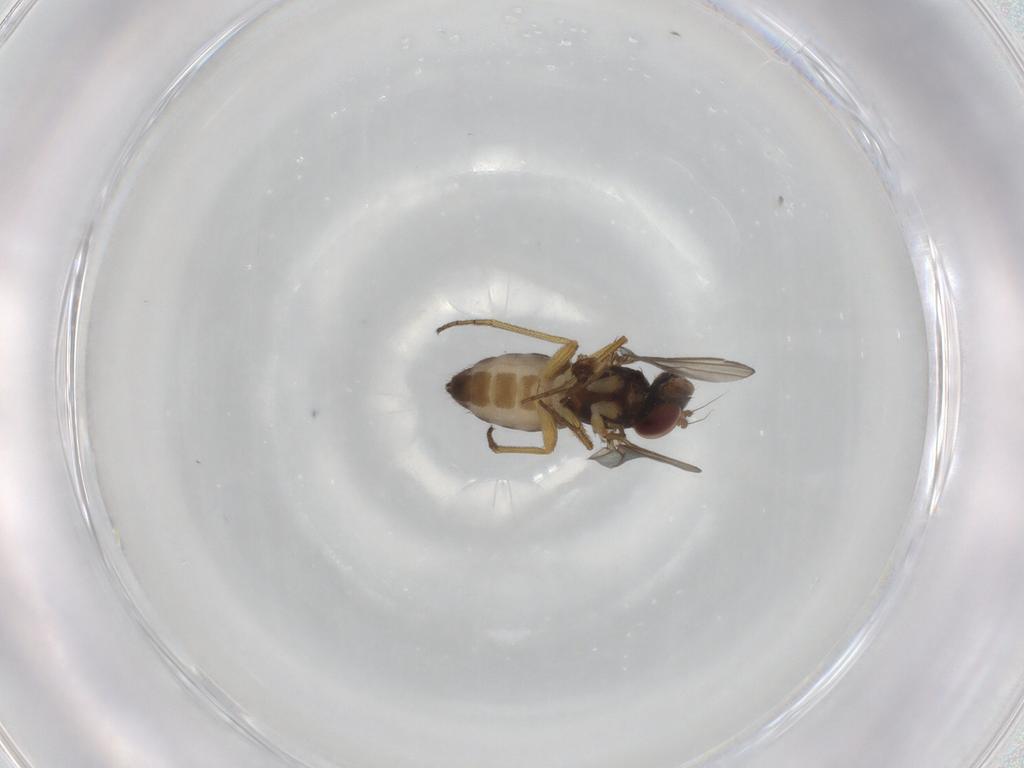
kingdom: Animalia
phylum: Arthropoda
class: Insecta
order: Diptera
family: Dolichopodidae
